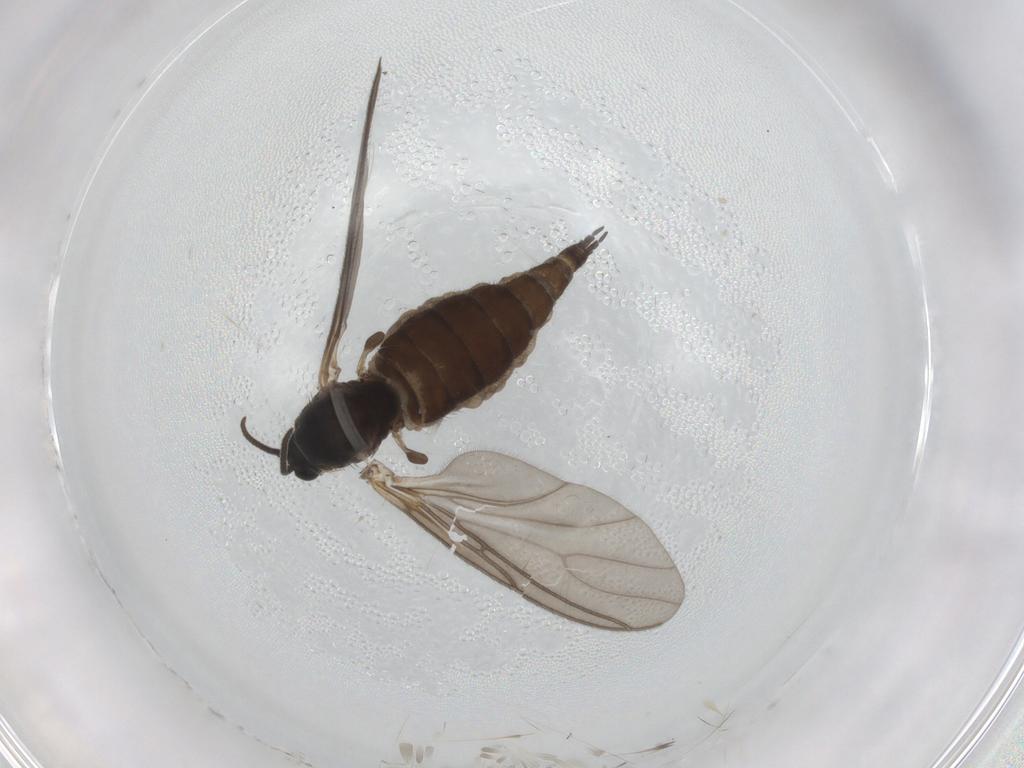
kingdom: Animalia
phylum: Arthropoda
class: Insecta
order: Diptera
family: Sciaridae
